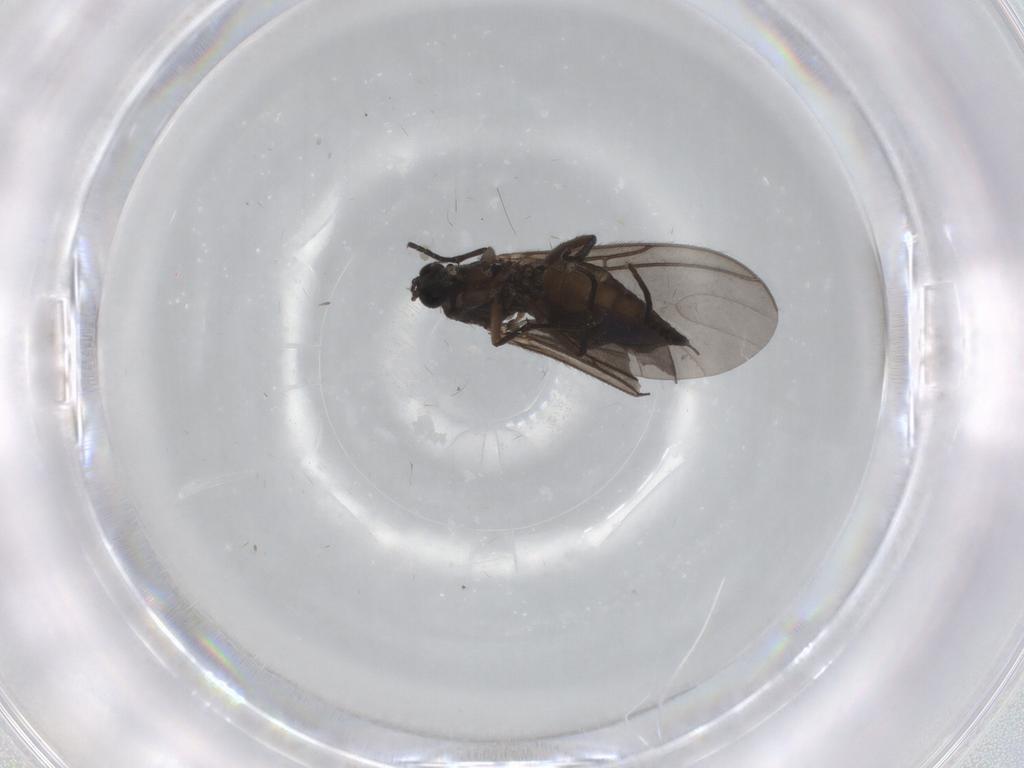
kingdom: Animalia
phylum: Arthropoda
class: Insecta
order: Diptera
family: Sciaridae
